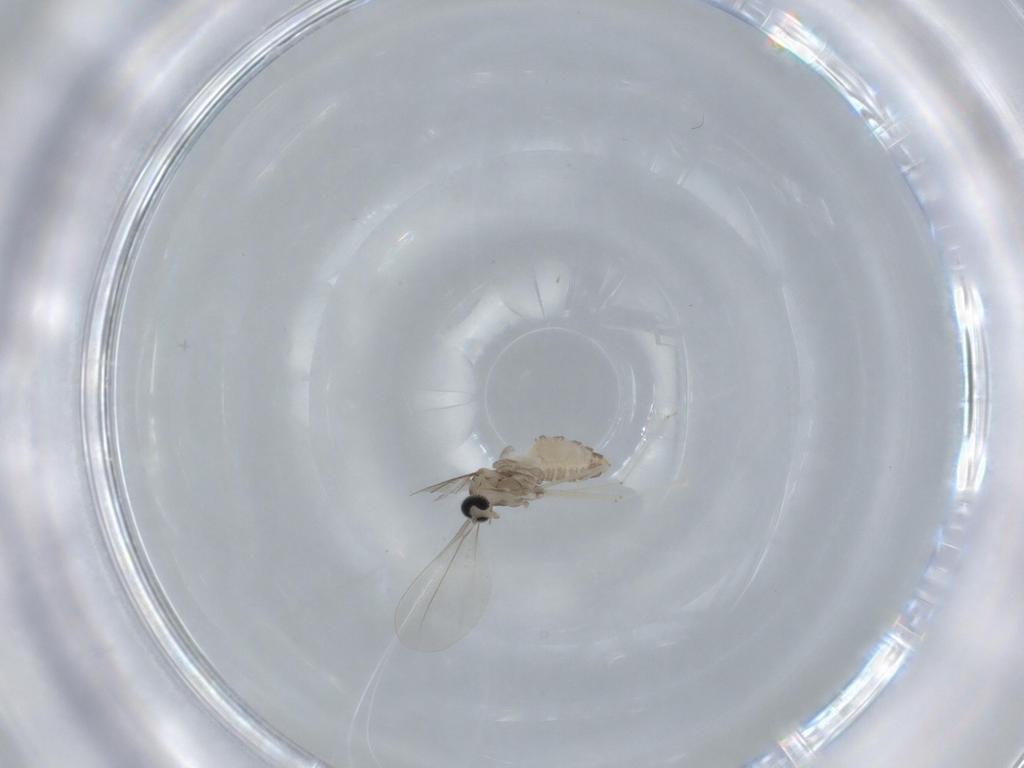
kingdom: Animalia
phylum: Arthropoda
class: Insecta
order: Diptera
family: Cecidomyiidae
